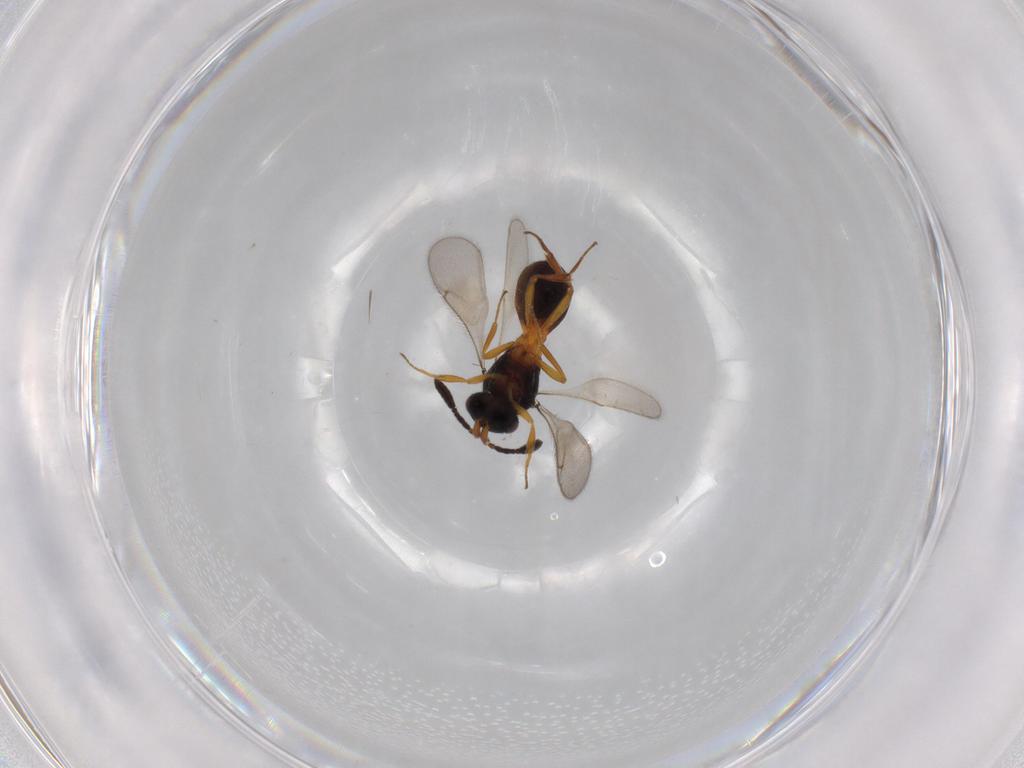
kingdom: Animalia
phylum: Arthropoda
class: Insecta
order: Hymenoptera
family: Scelionidae
